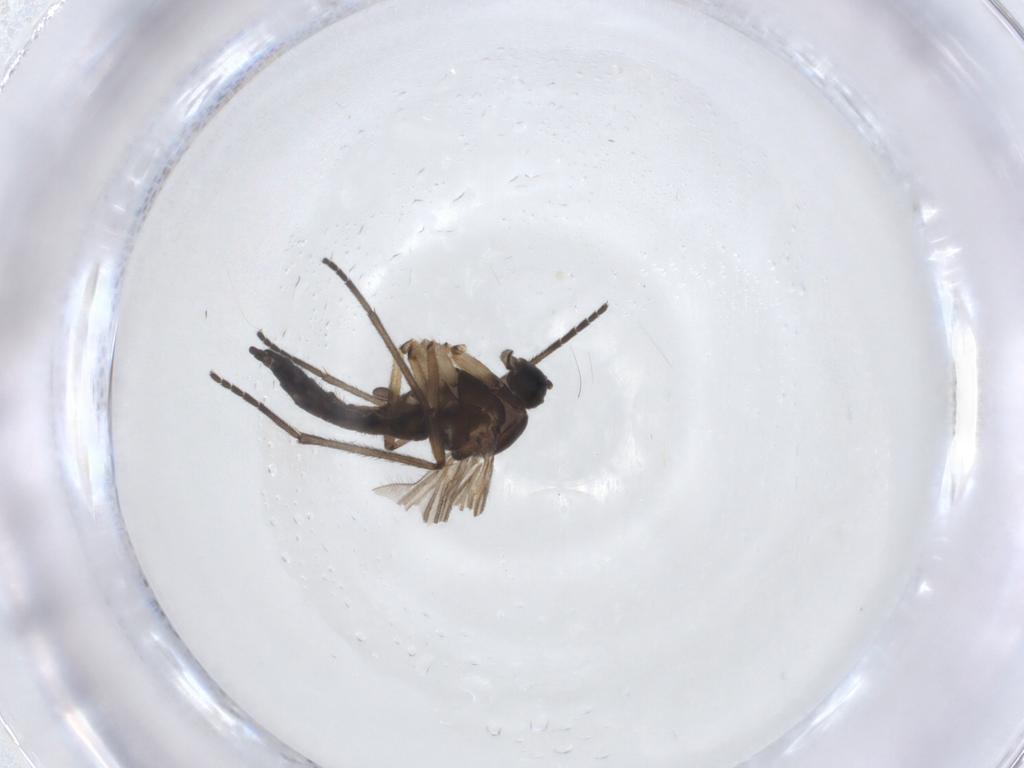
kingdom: Animalia
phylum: Arthropoda
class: Insecta
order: Diptera
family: Sciaridae
